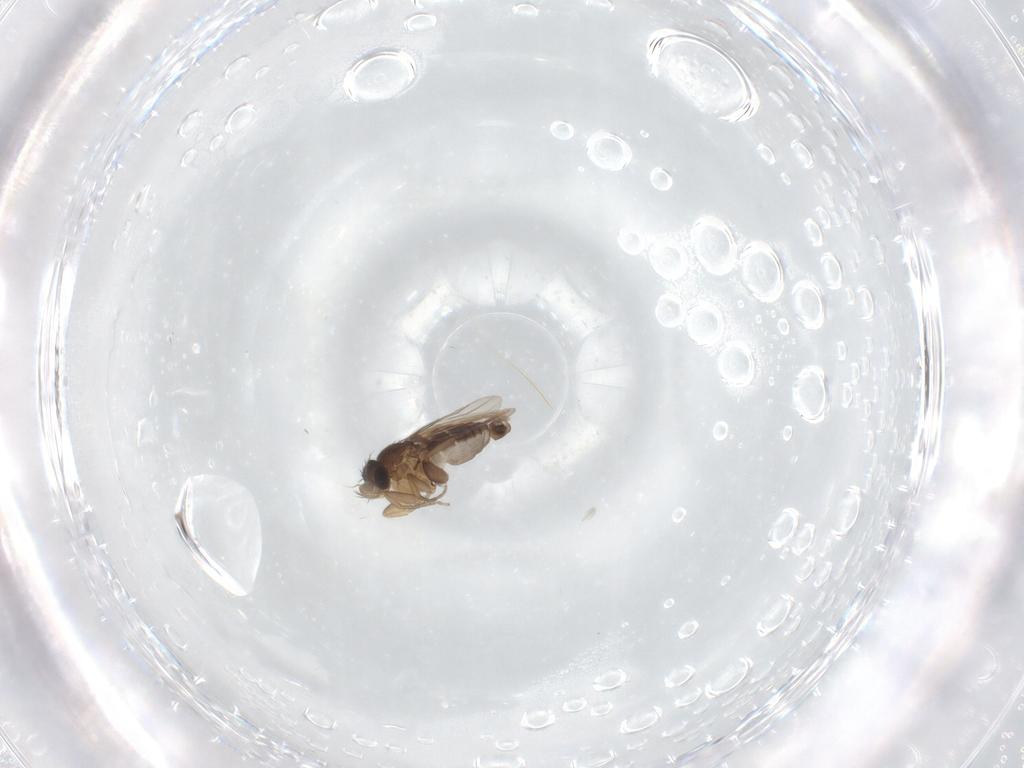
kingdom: Animalia
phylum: Arthropoda
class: Insecta
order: Diptera
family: Phoridae
